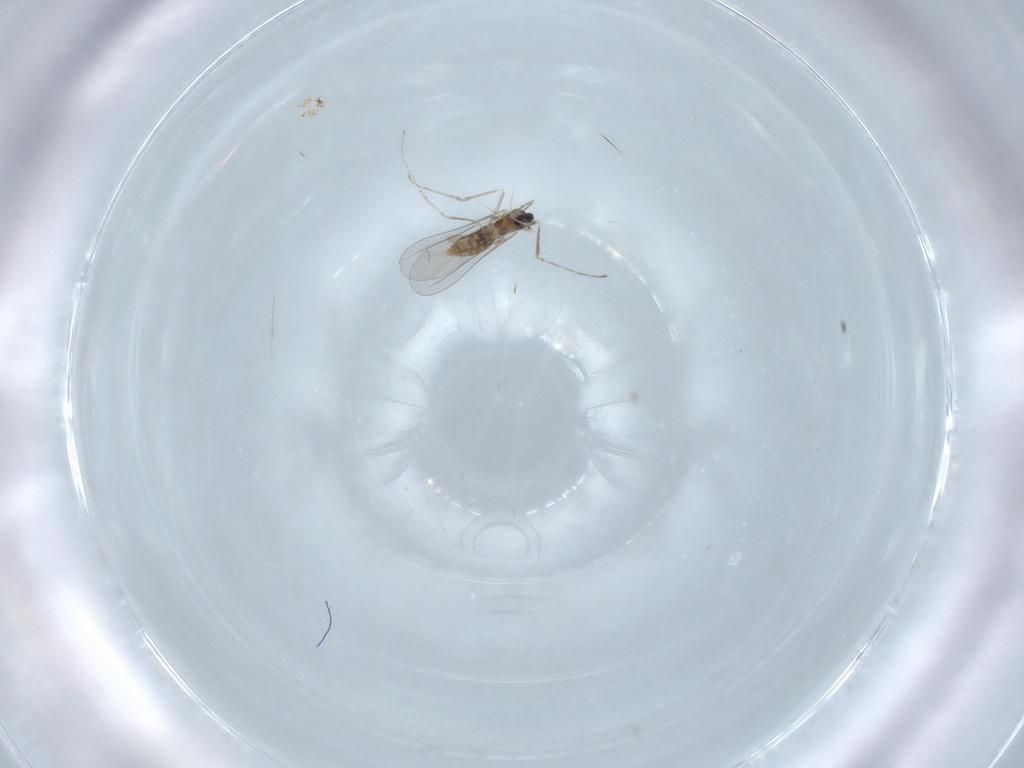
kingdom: Animalia
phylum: Arthropoda
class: Insecta
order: Diptera
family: Cecidomyiidae
